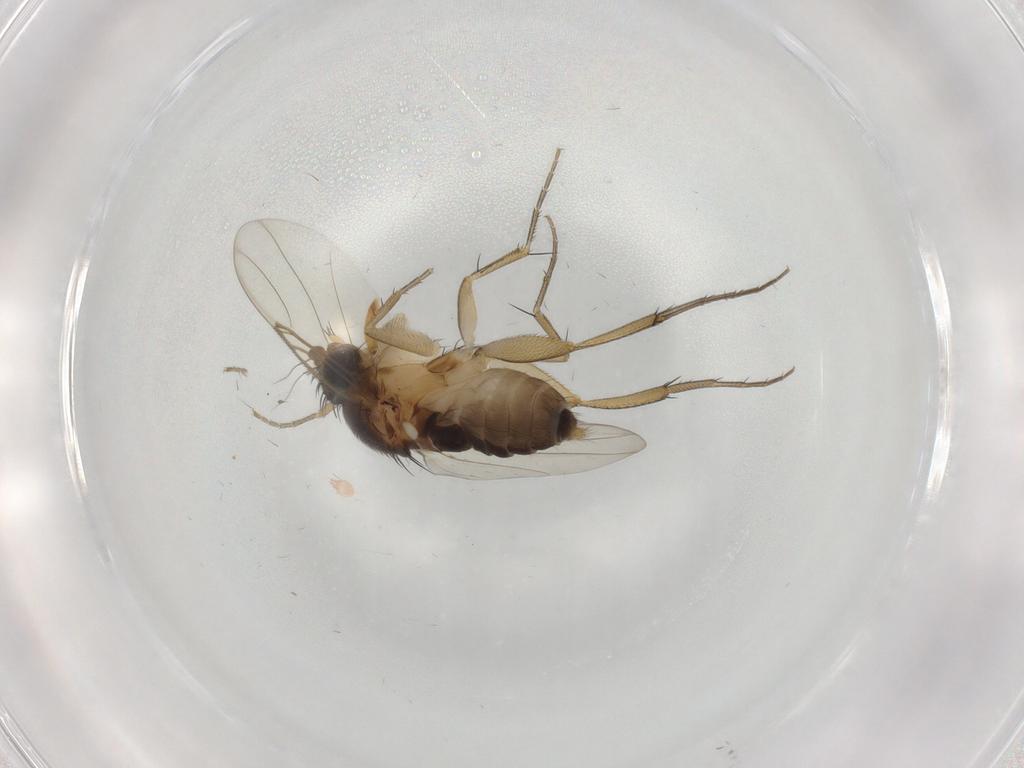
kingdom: Animalia
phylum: Arthropoda
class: Insecta
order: Diptera
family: Phoridae
